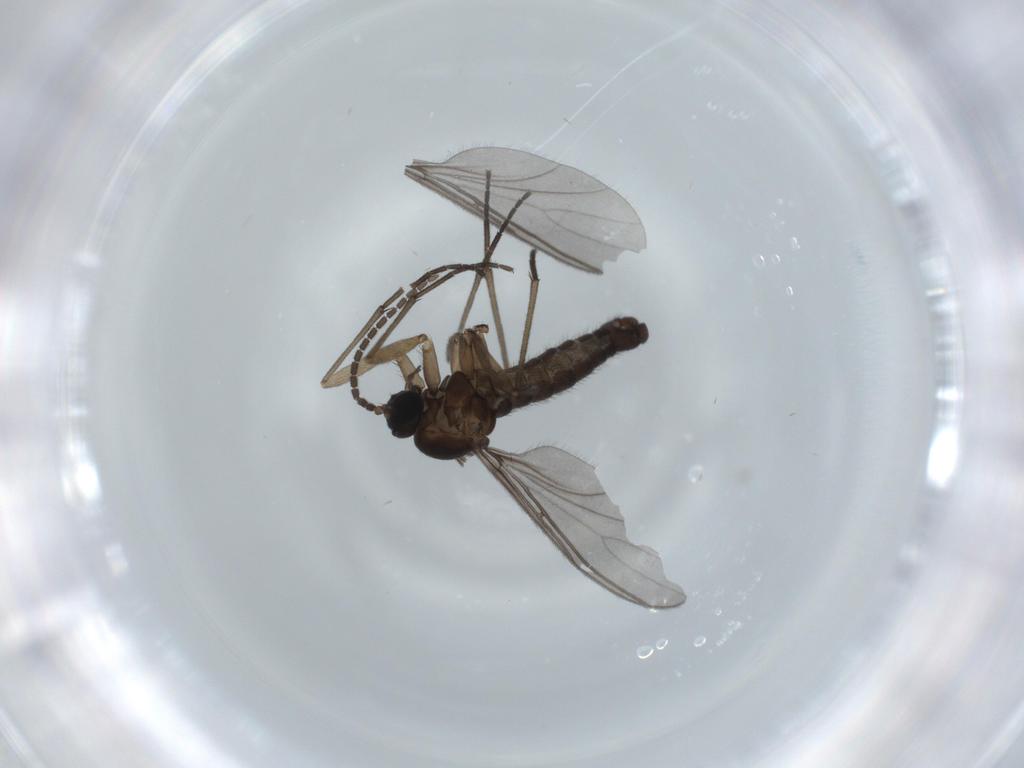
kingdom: Animalia
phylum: Arthropoda
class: Insecta
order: Diptera
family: Sciaridae
